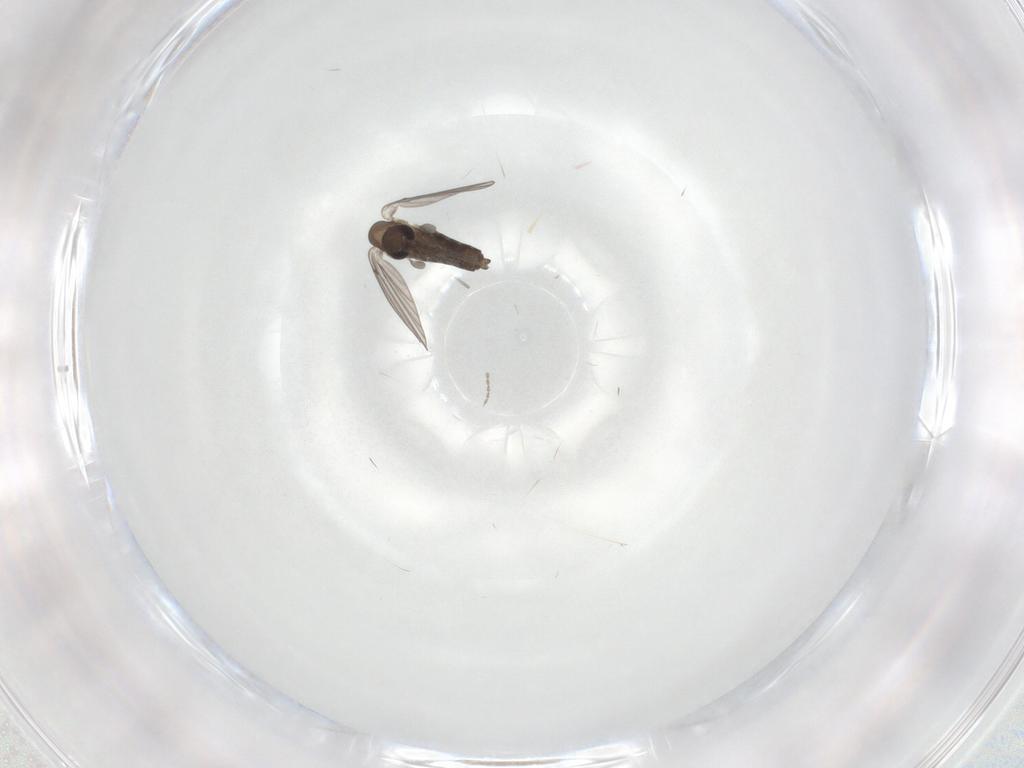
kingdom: Animalia
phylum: Arthropoda
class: Insecta
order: Diptera
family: Cecidomyiidae
